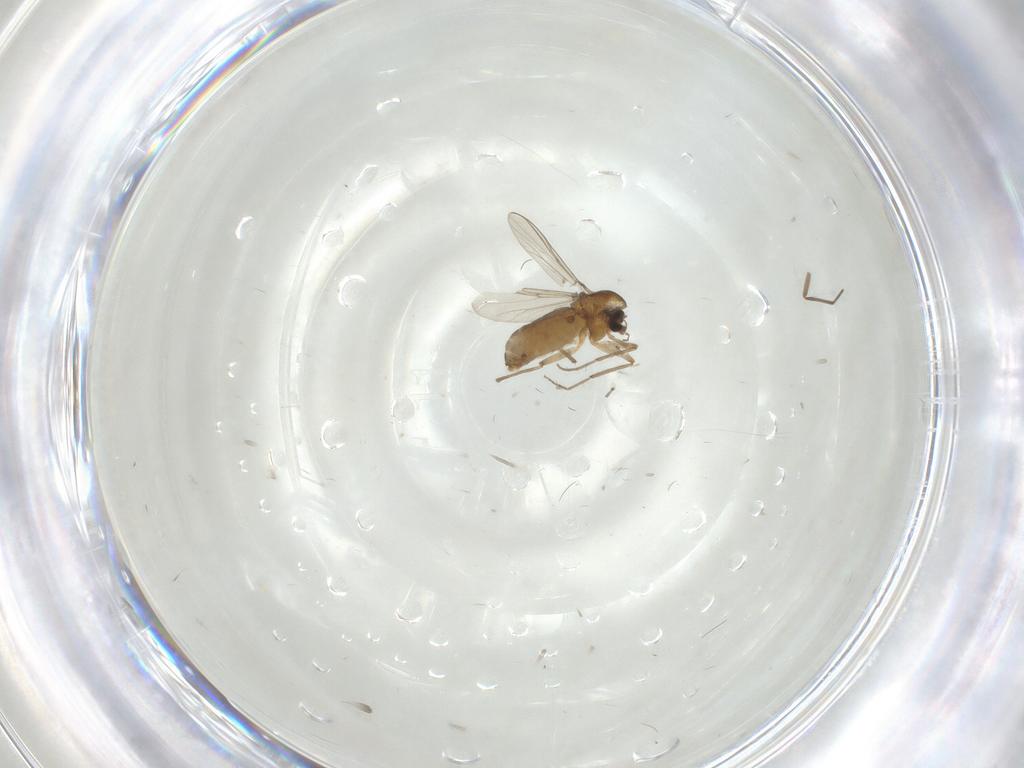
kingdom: Animalia
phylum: Arthropoda
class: Insecta
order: Diptera
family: Chironomidae
